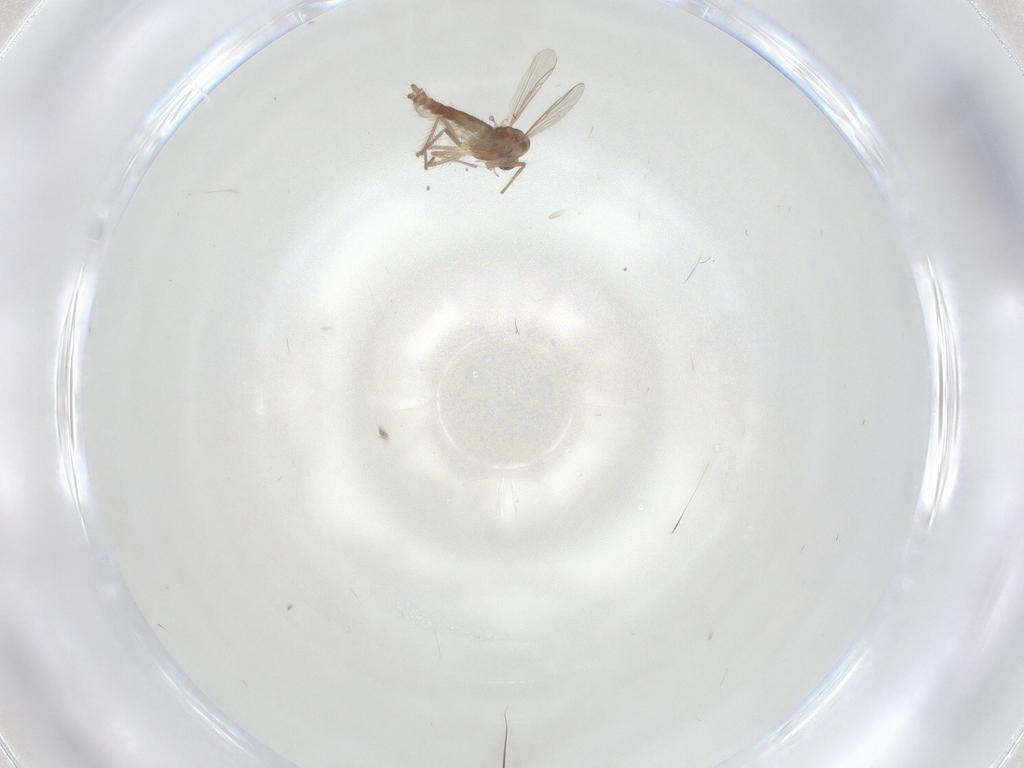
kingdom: Animalia
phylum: Arthropoda
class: Insecta
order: Diptera
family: Chironomidae
